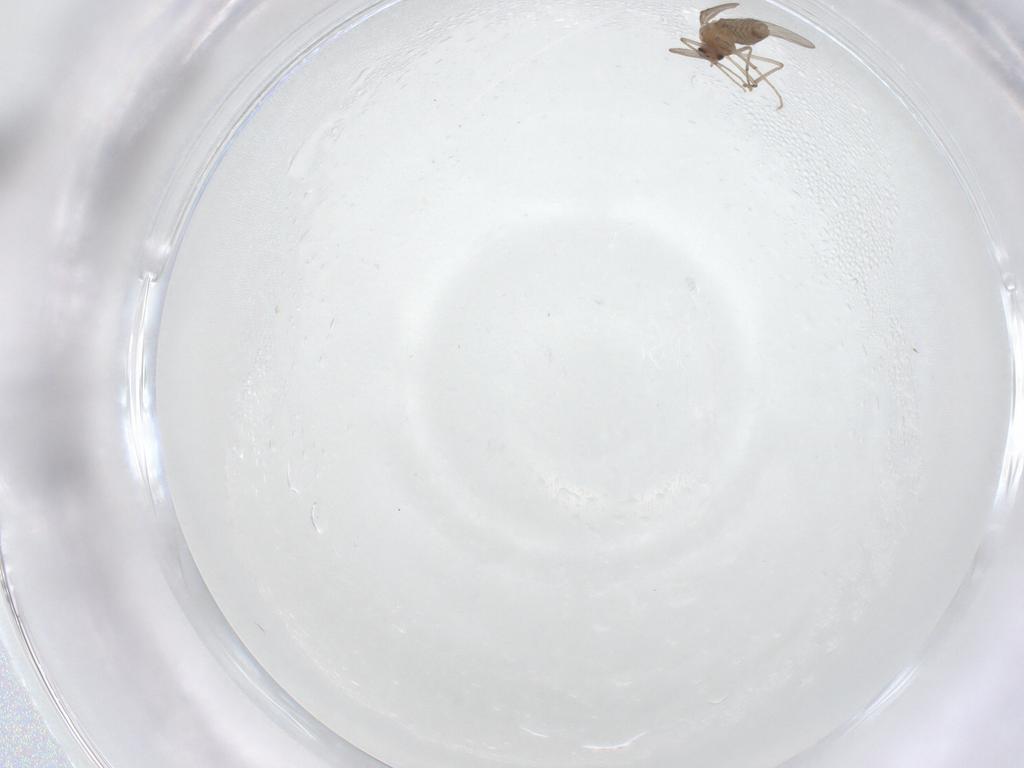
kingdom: Animalia
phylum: Arthropoda
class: Insecta
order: Diptera
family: Chironomidae
